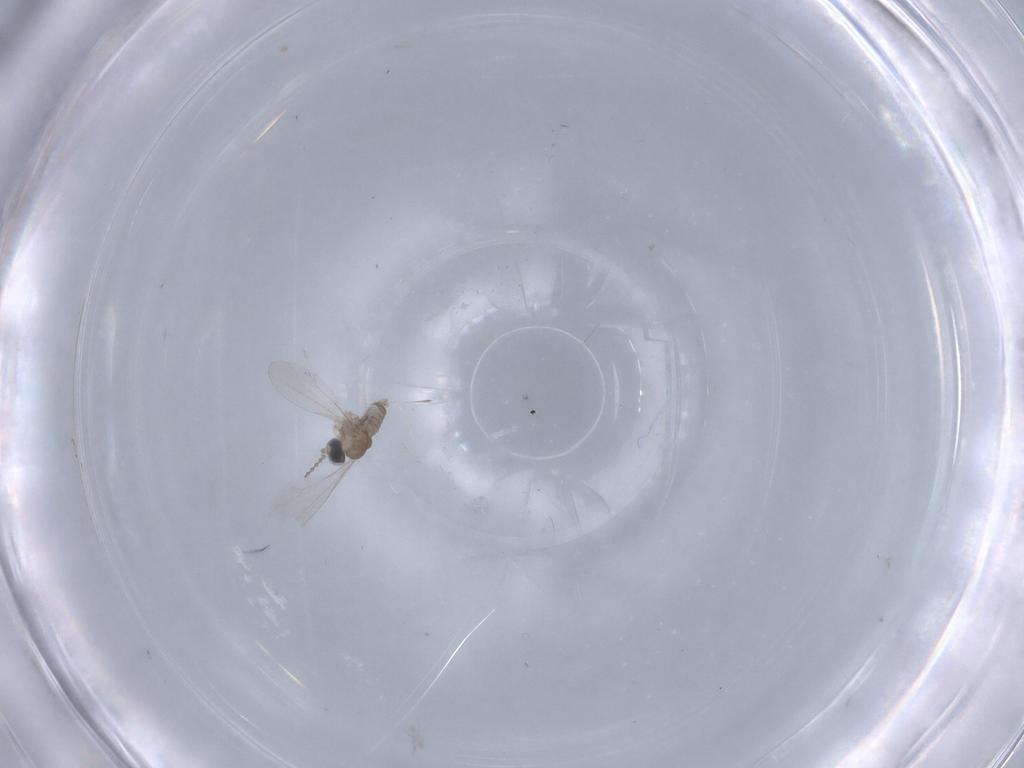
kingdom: Animalia
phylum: Arthropoda
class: Insecta
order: Diptera
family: Cecidomyiidae
